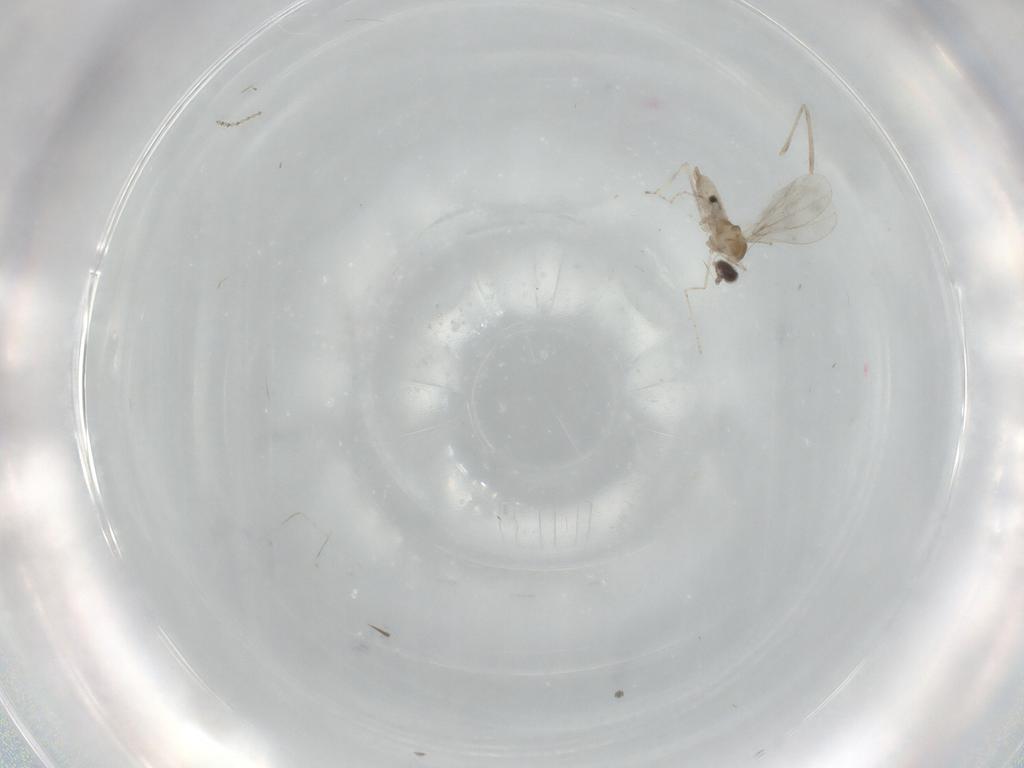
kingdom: Animalia
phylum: Arthropoda
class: Insecta
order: Diptera
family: Cecidomyiidae
